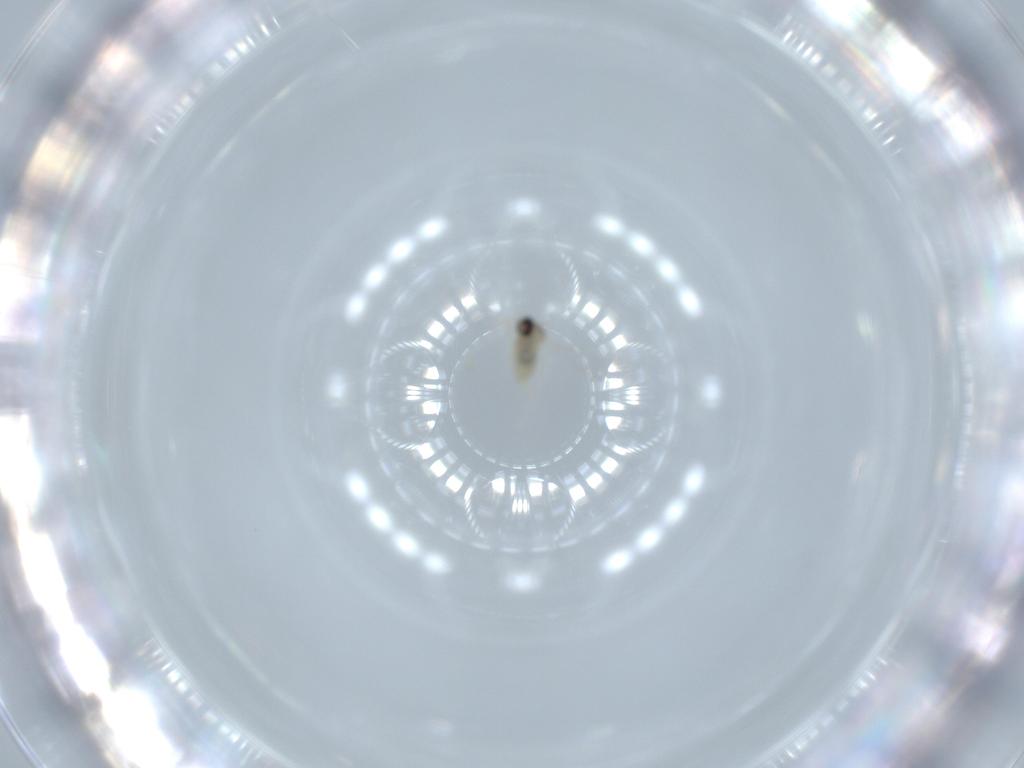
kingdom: Animalia
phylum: Arthropoda
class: Insecta
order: Diptera
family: Cecidomyiidae
